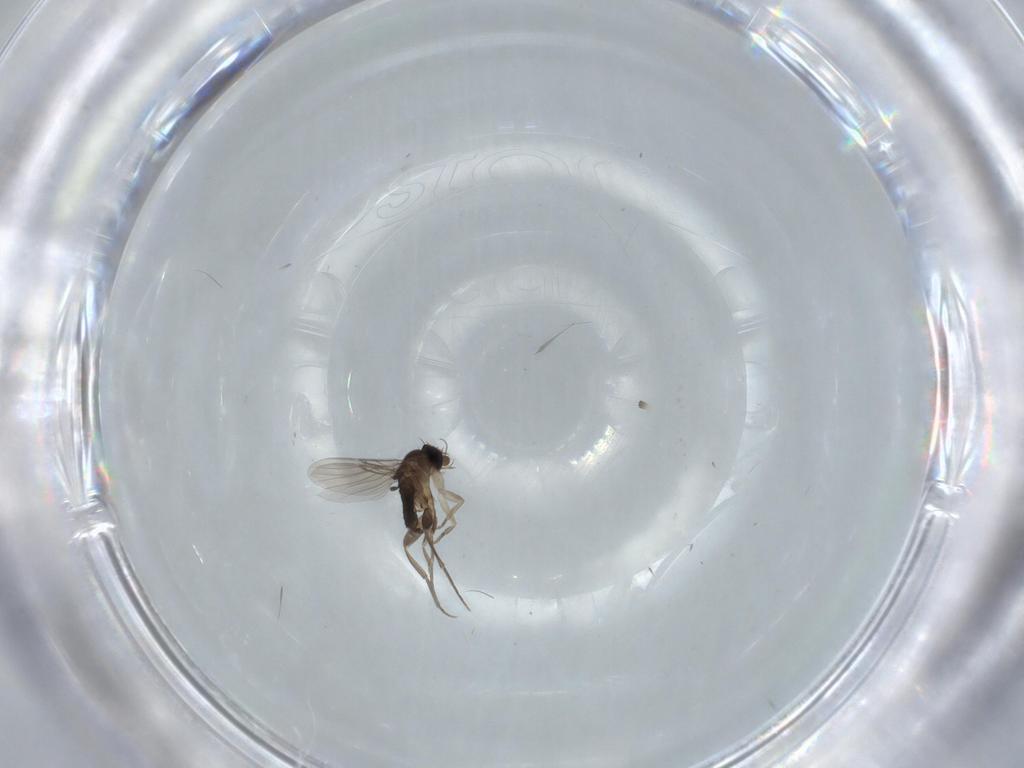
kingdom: Animalia
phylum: Arthropoda
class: Insecta
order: Diptera
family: Phoridae
